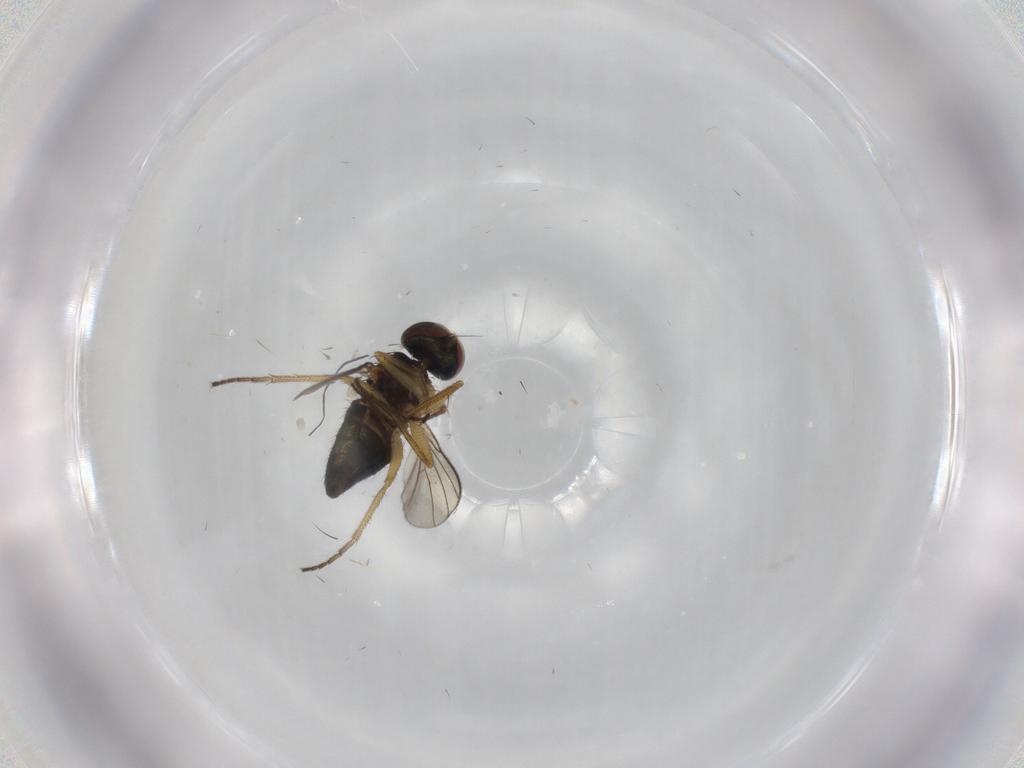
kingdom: Animalia
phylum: Arthropoda
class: Insecta
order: Diptera
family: Dolichopodidae
